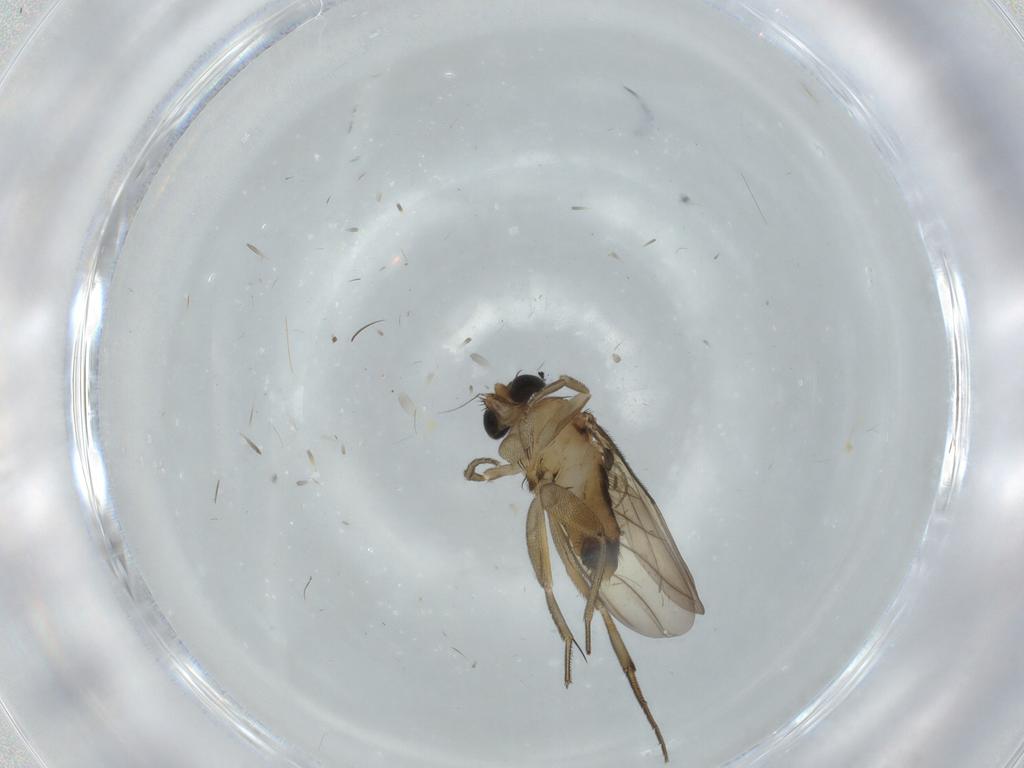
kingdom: Animalia
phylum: Arthropoda
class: Insecta
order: Diptera
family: Cecidomyiidae
